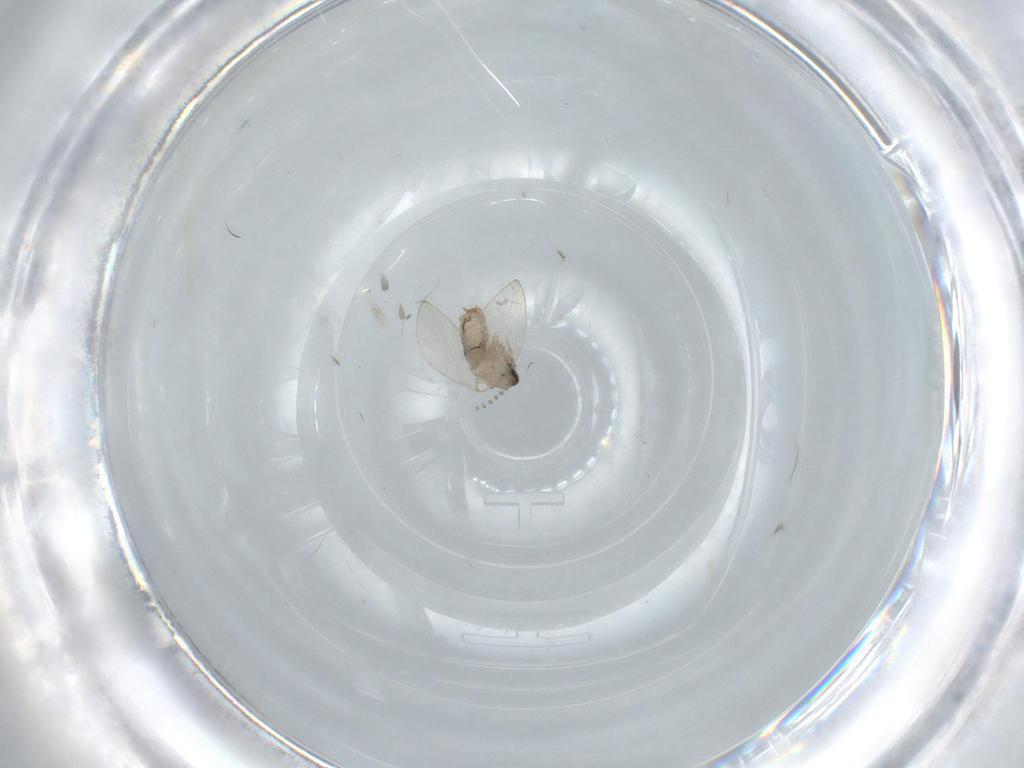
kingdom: Animalia
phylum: Arthropoda
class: Insecta
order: Diptera
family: Psychodidae
